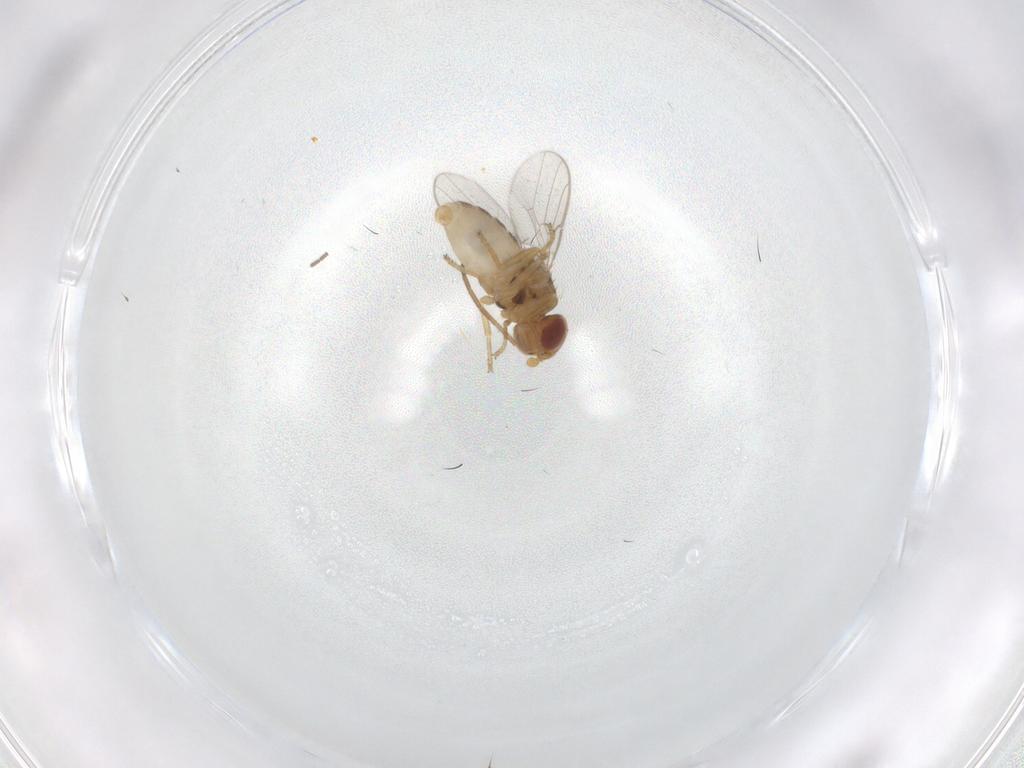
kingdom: Animalia
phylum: Arthropoda
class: Insecta
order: Diptera
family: Chloropidae
